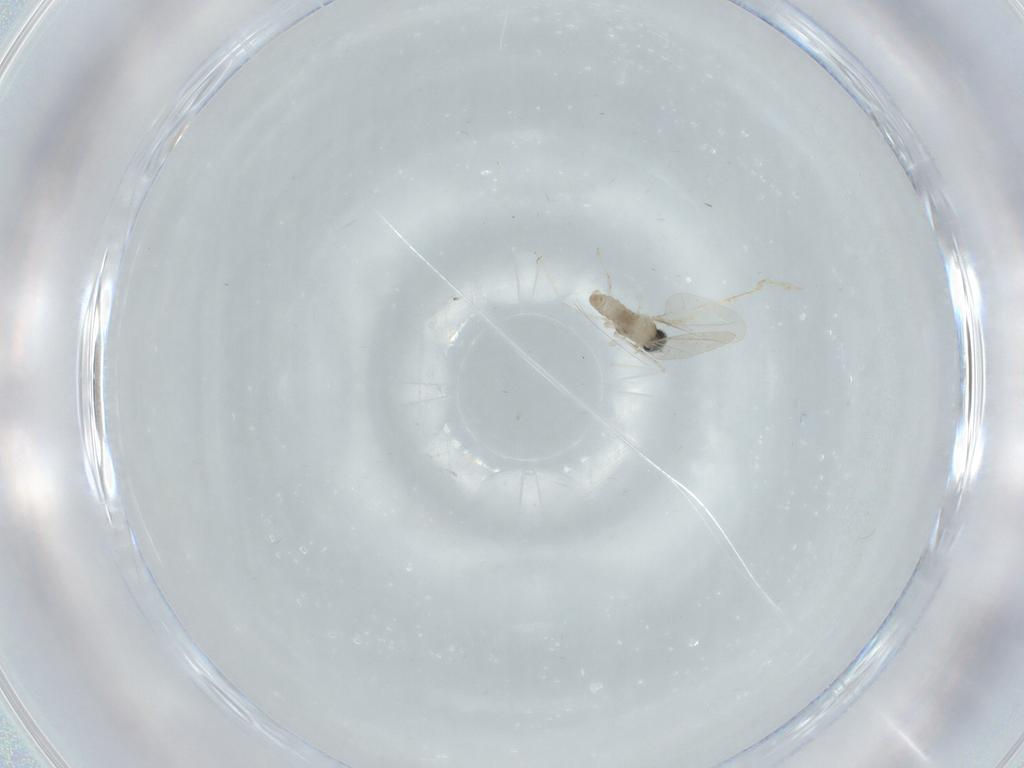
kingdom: Animalia
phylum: Arthropoda
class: Insecta
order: Diptera
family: Cecidomyiidae
